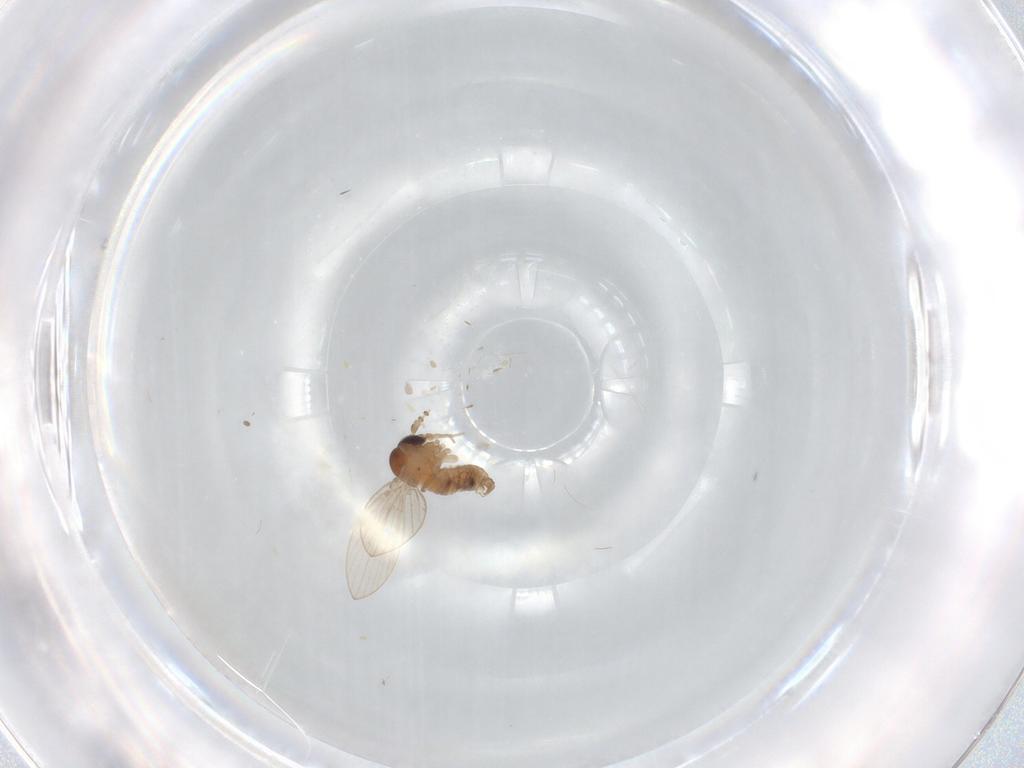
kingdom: Animalia
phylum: Arthropoda
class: Insecta
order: Diptera
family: Psychodidae
